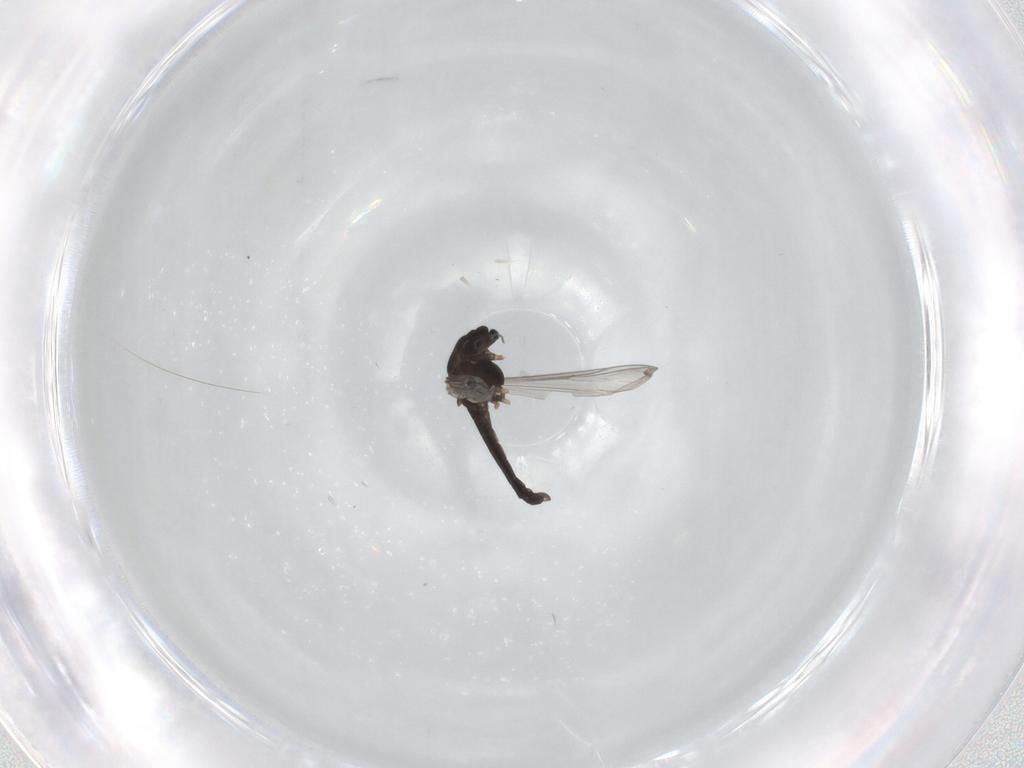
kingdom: Animalia
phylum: Arthropoda
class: Insecta
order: Diptera
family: Chironomidae
